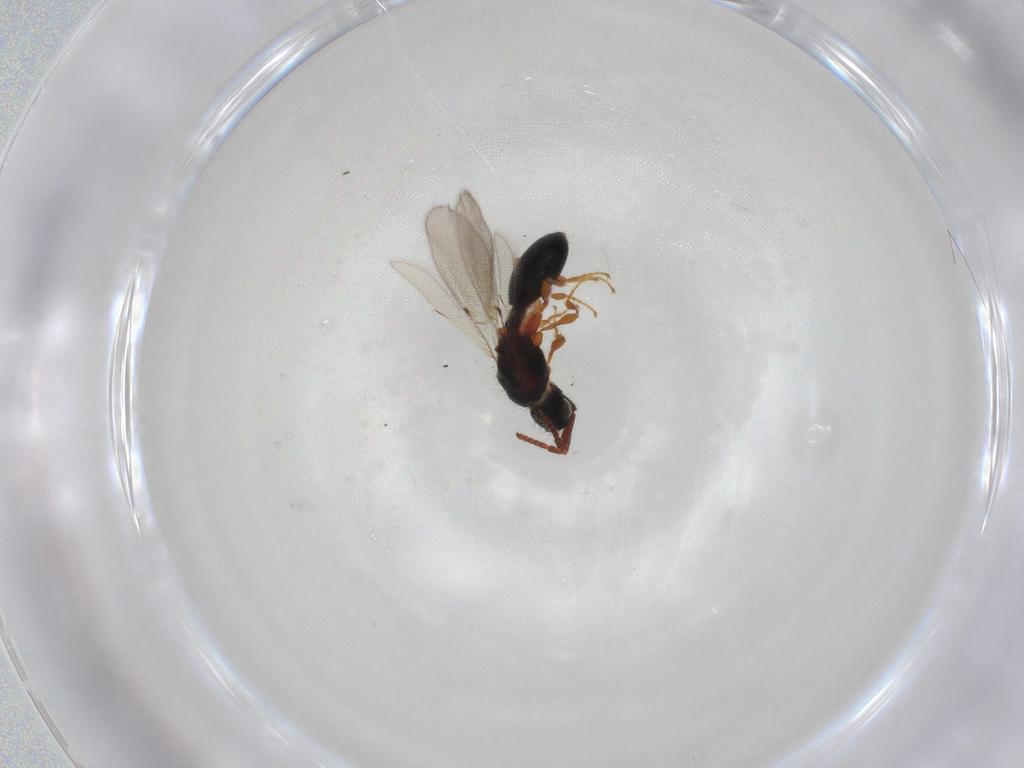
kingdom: Animalia
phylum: Arthropoda
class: Insecta
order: Hymenoptera
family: Diapriidae
